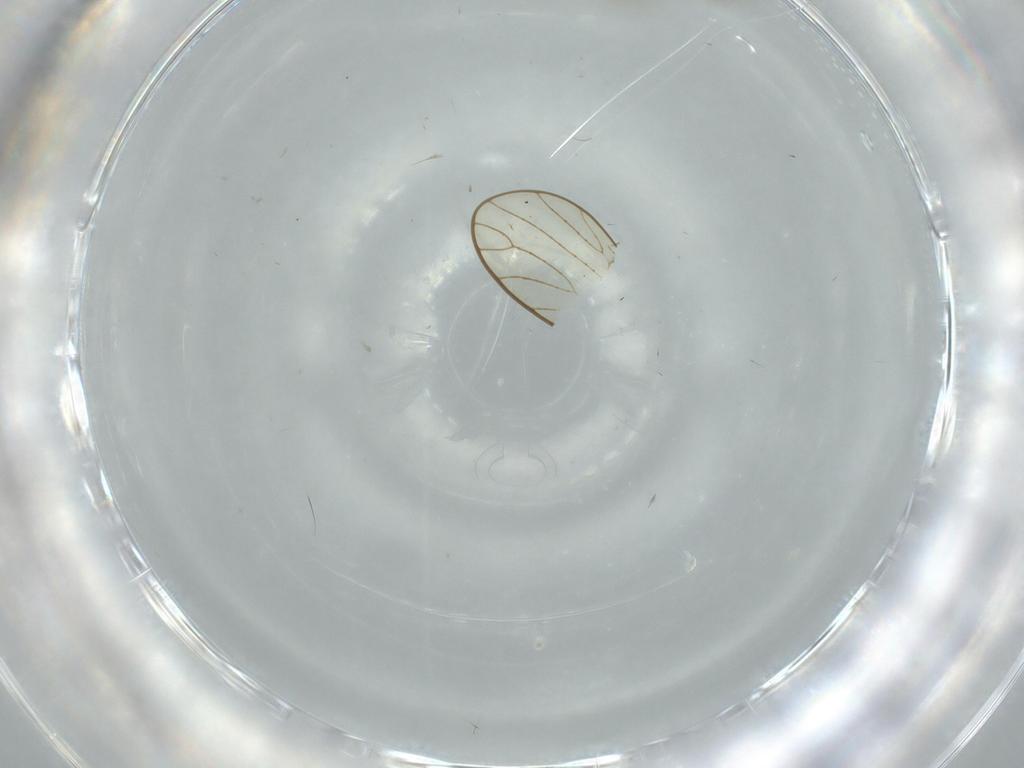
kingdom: Animalia
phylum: Arthropoda
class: Insecta
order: Diptera
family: Cecidomyiidae
